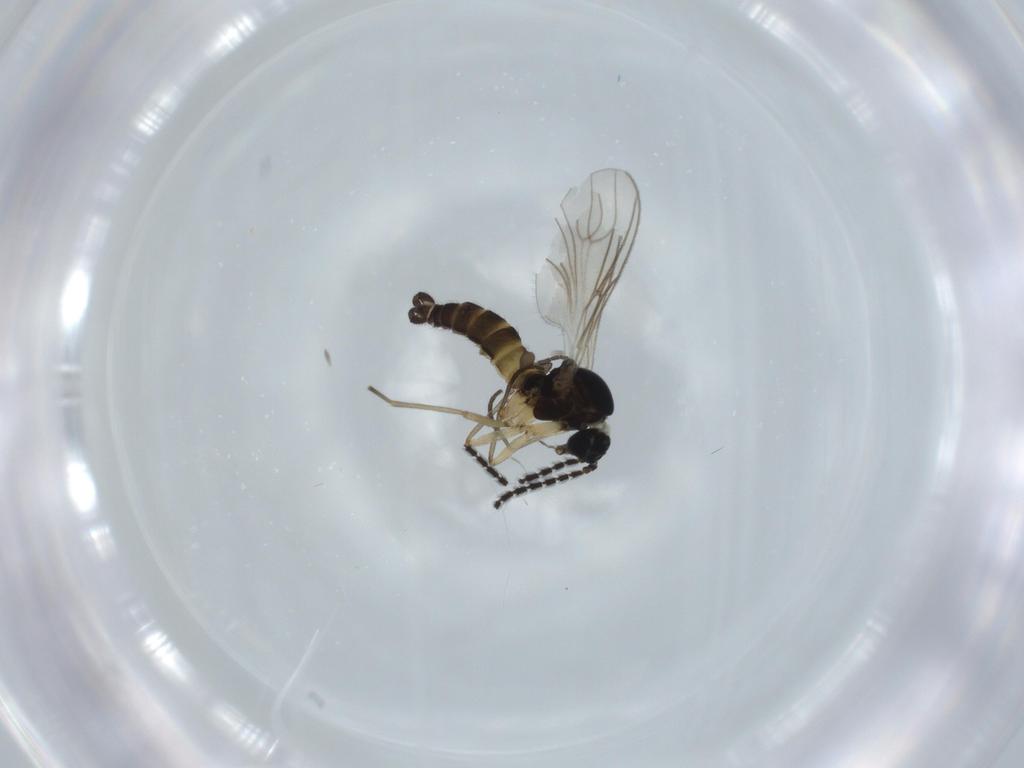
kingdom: Animalia
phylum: Arthropoda
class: Insecta
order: Diptera
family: Sciaridae
